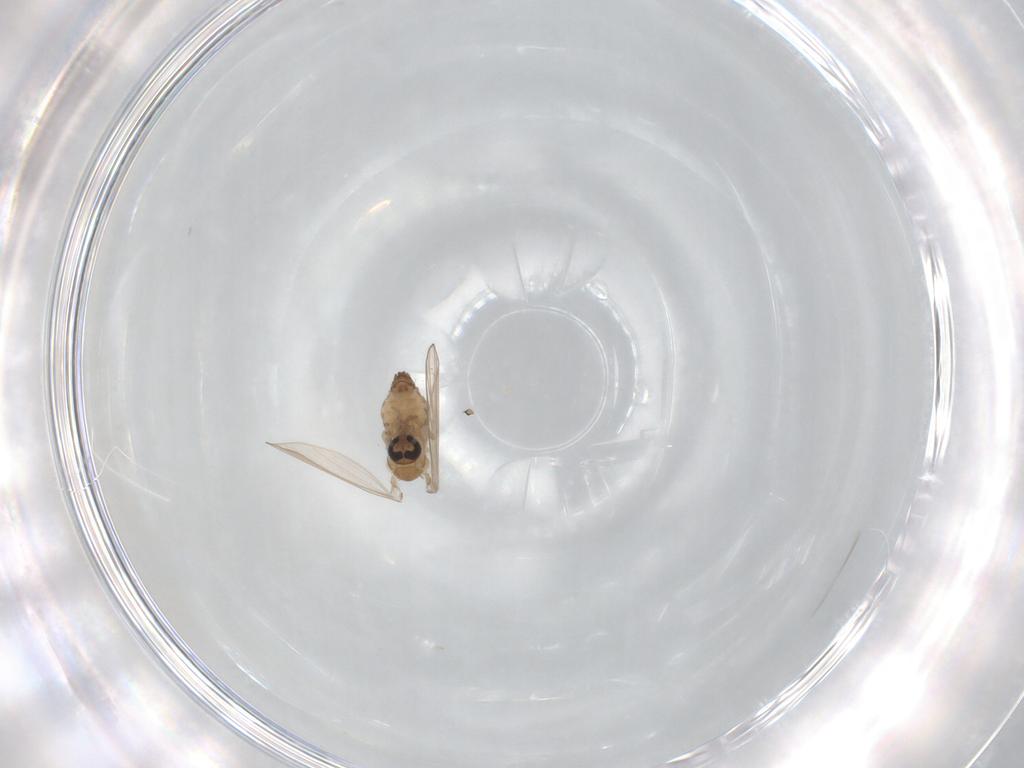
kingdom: Animalia
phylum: Arthropoda
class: Insecta
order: Diptera
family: Psychodidae
